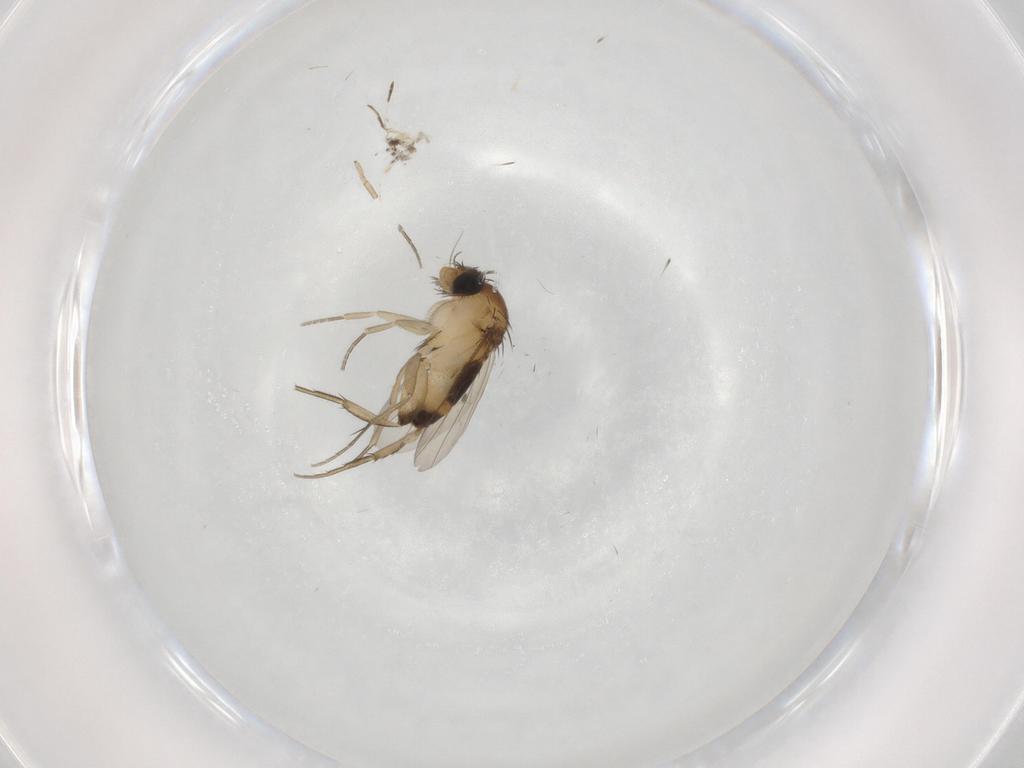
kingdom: Animalia
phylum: Arthropoda
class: Insecta
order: Diptera
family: Phoridae
